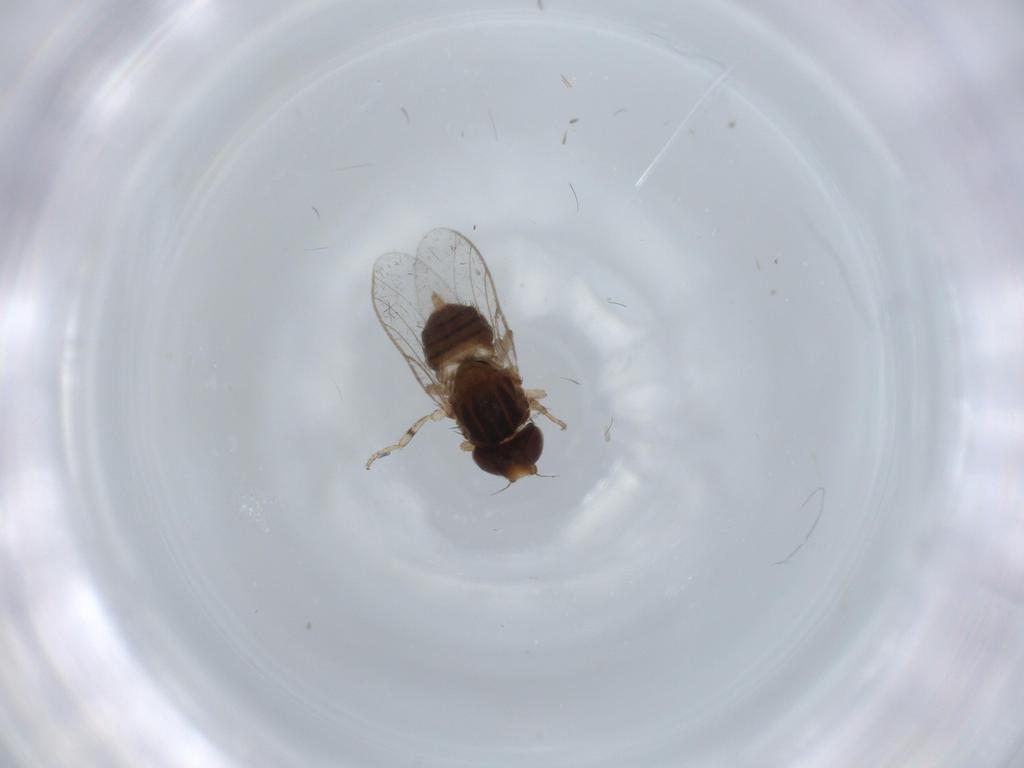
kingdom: Animalia
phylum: Arthropoda
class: Insecta
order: Diptera
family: Chloropidae
